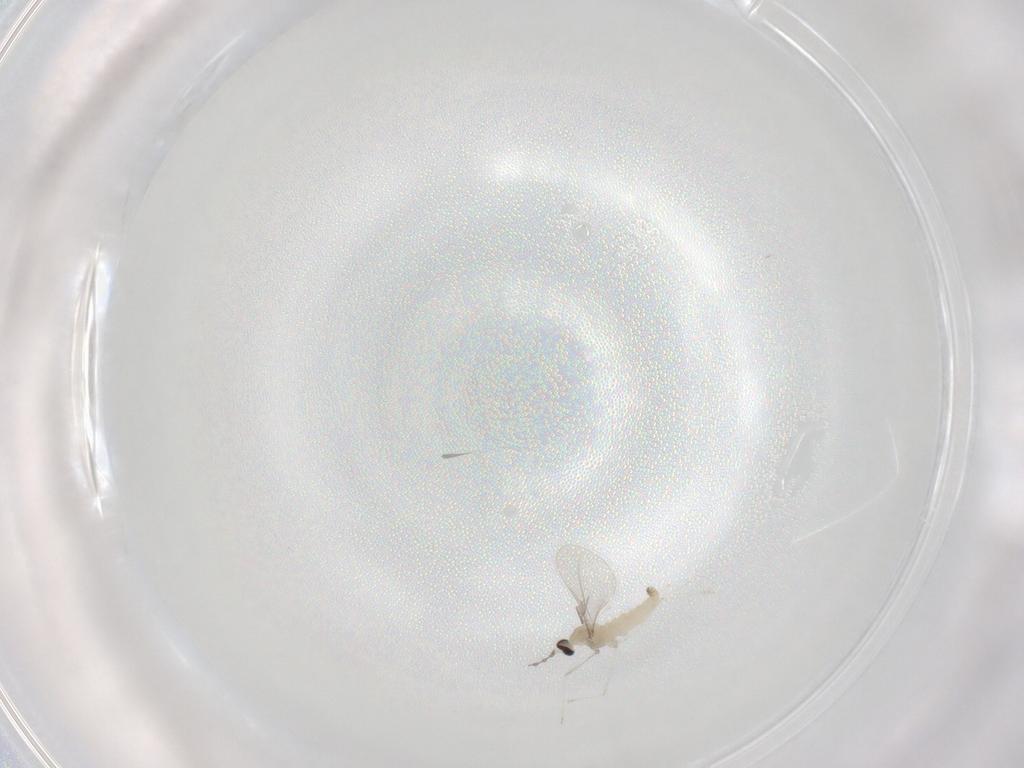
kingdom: Animalia
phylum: Arthropoda
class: Insecta
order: Diptera
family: Cecidomyiidae
